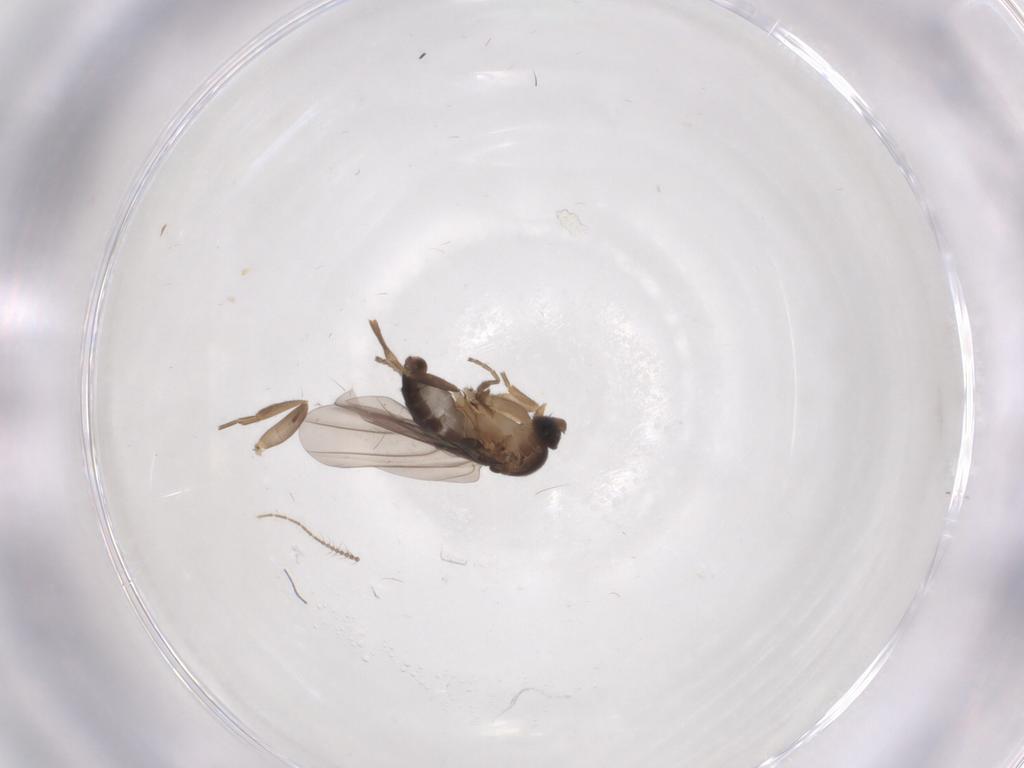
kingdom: Animalia
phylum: Arthropoda
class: Insecta
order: Diptera
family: Phoridae
